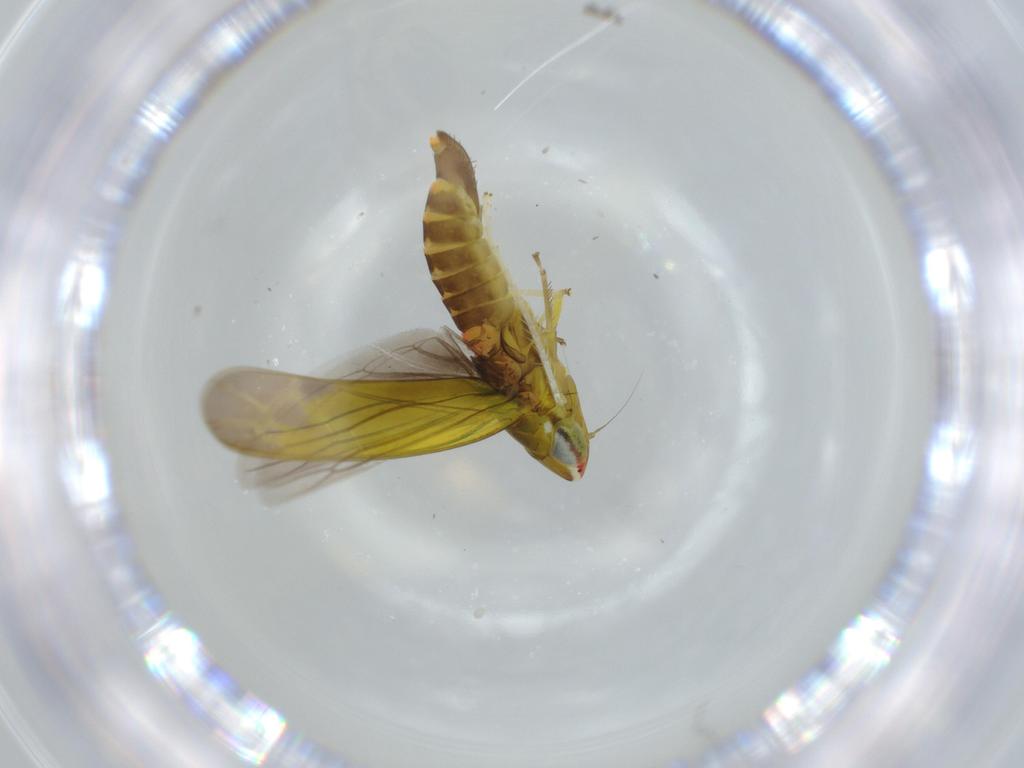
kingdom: Animalia
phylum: Arthropoda
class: Insecta
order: Hemiptera
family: Cicadellidae
